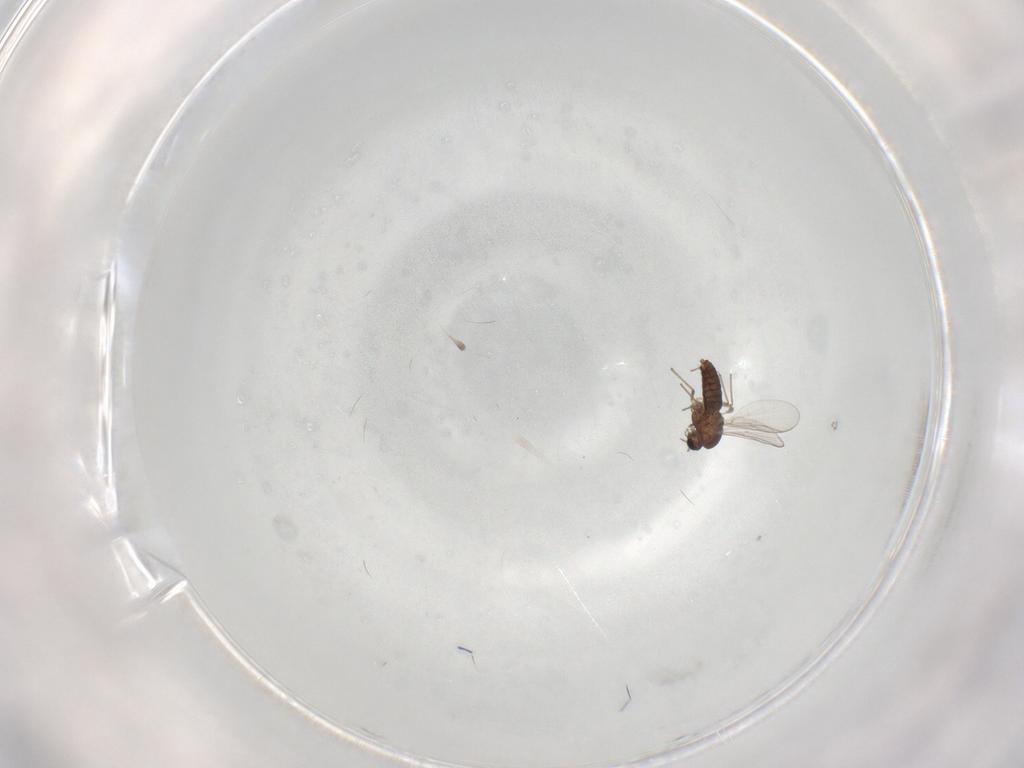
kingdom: Animalia
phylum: Arthropoda
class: Insecta
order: Diptera
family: Chironomidae
